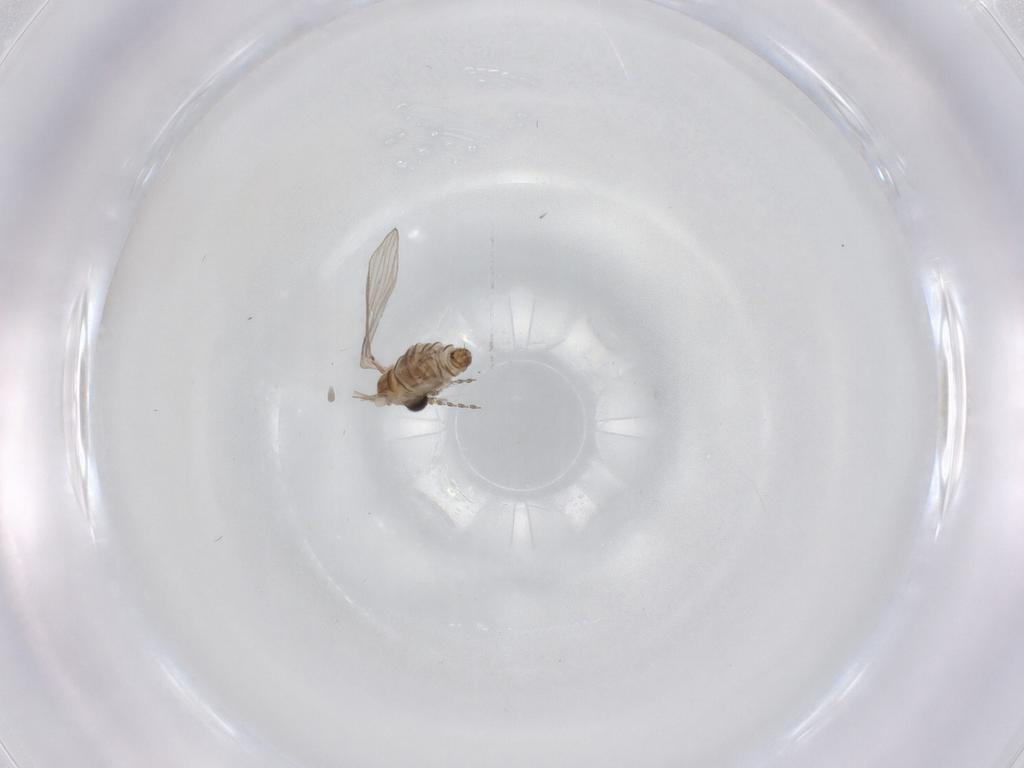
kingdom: Animalia
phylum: Arthropoda
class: Insecta
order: Diptera
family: Psychodidae
